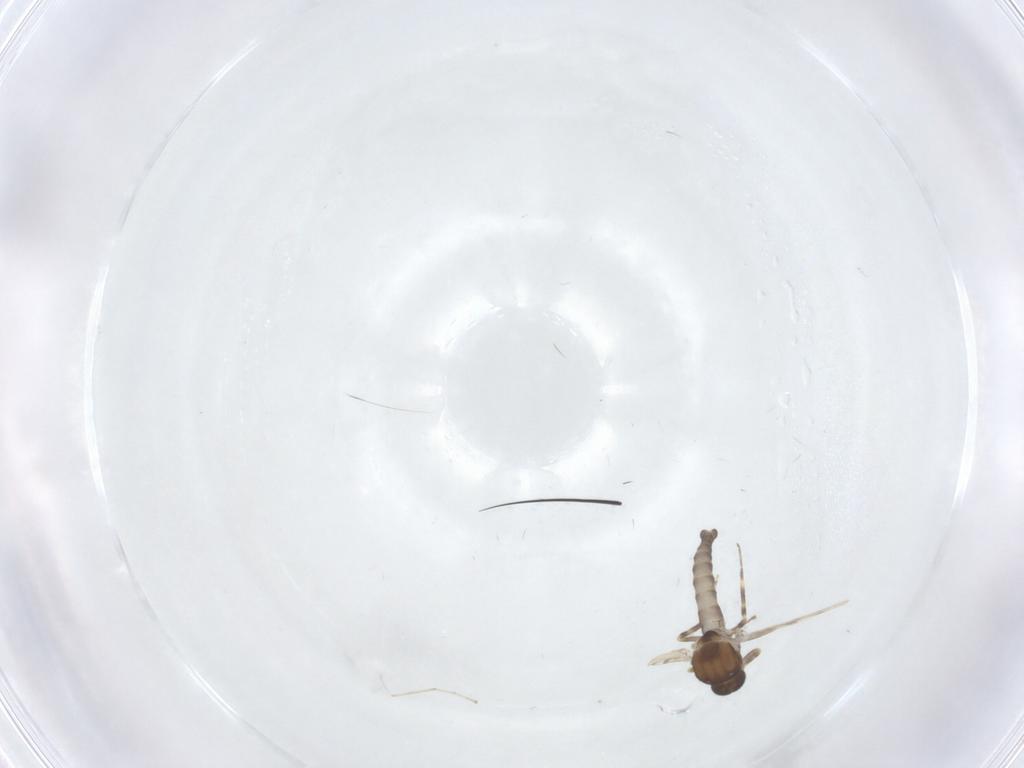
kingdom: Animalia
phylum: Arthropoda
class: Insecta
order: Diptera
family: Ceratopogonidae
